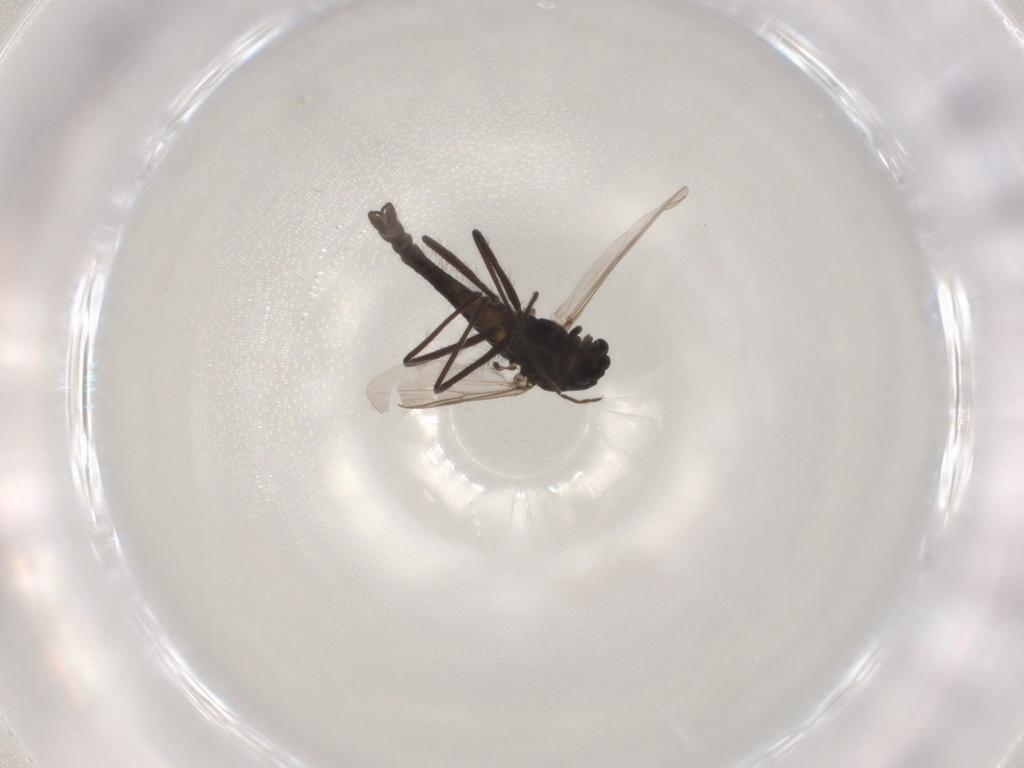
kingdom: Animalia
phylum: Arthropoda
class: Insecta
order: Diptera
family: Chironomidae
